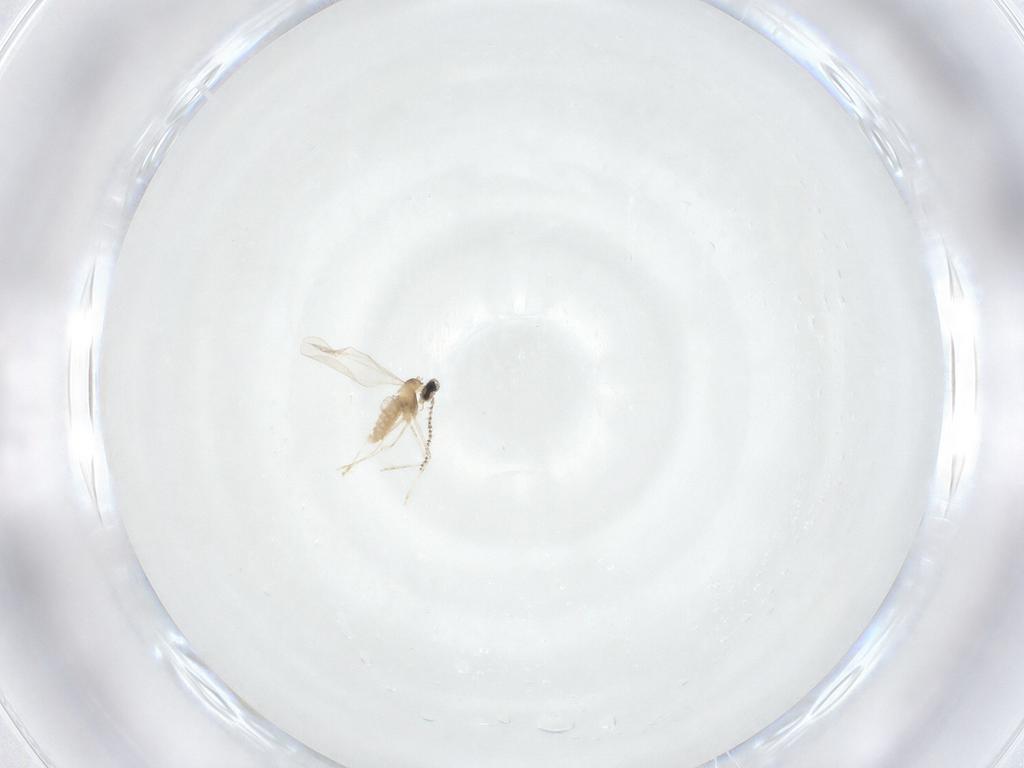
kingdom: Animalia
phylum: Arthropoda
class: Insecta
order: Diptera
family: Cecidomyiidae
